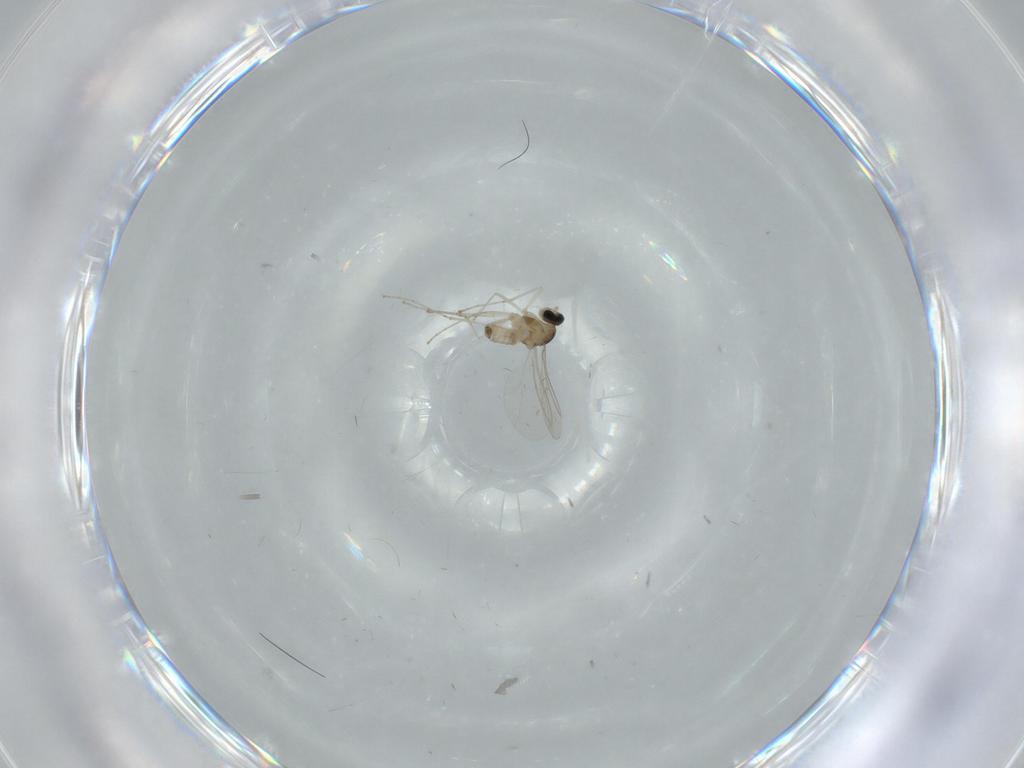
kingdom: Animalia
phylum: Arthropoda
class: Insecta
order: Diptera
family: Cecidomyiidae
